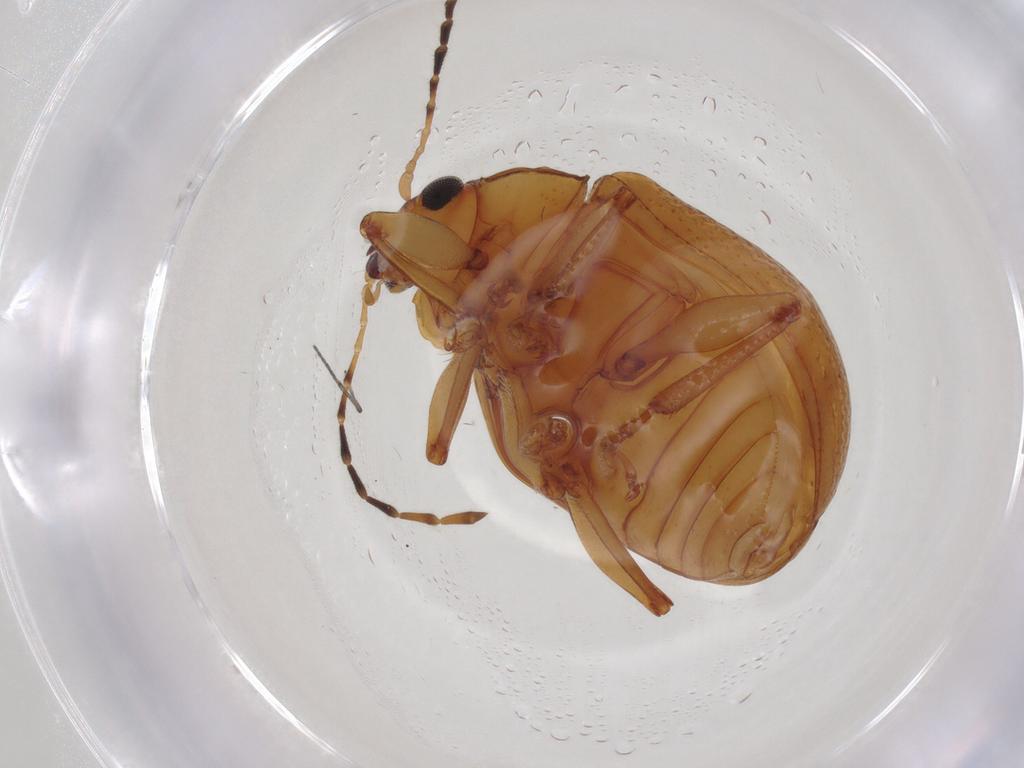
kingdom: Animalia
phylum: Arthropoda
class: Insecta
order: Coleoptera
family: Chrysomelidae
